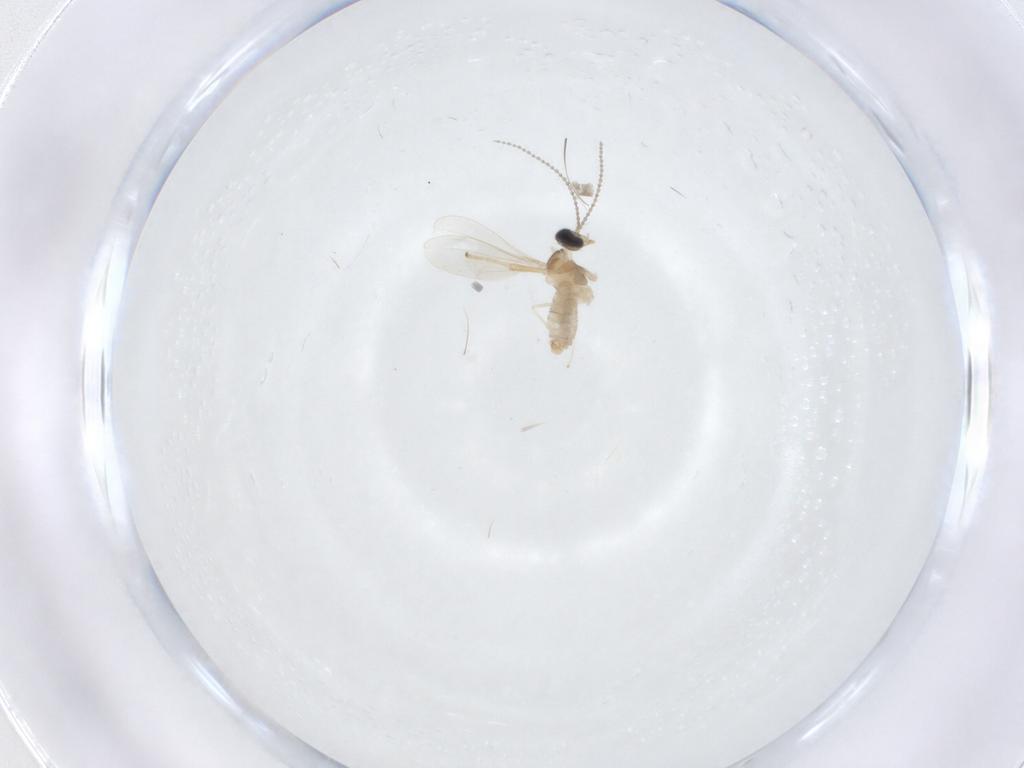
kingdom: Animalia
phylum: Arthropoda
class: Insecta
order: Diptera
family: Cecidomyiidae
